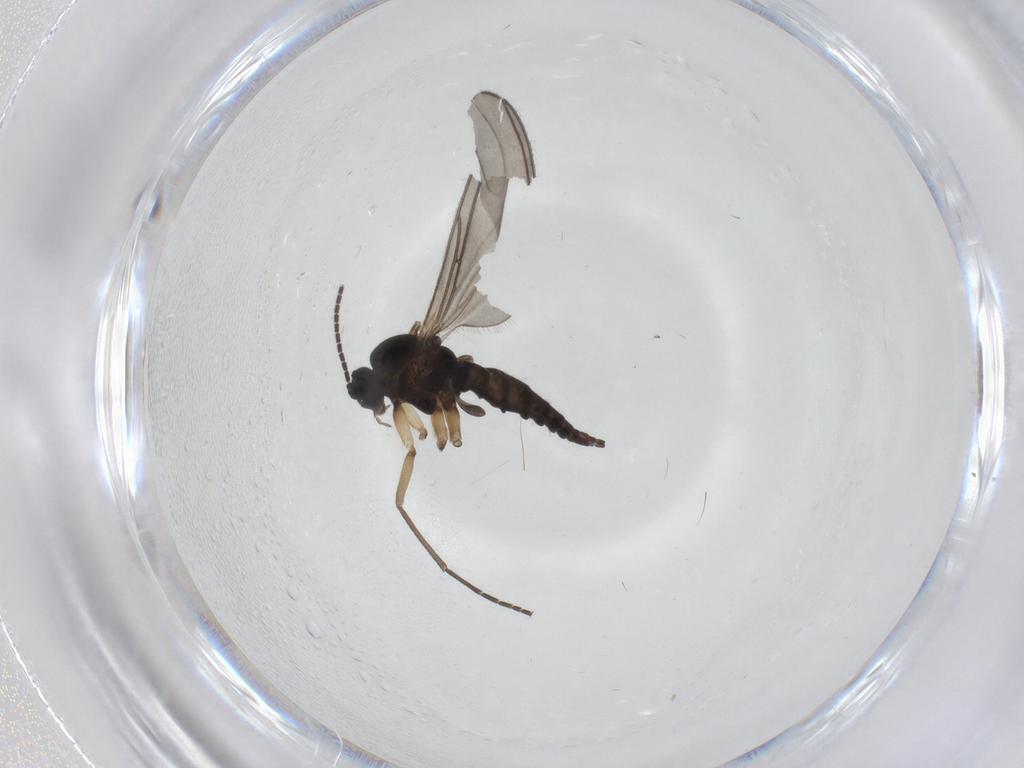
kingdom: Animalia
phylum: Arthropoda
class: Insecta
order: Diptera
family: Sciaridae
